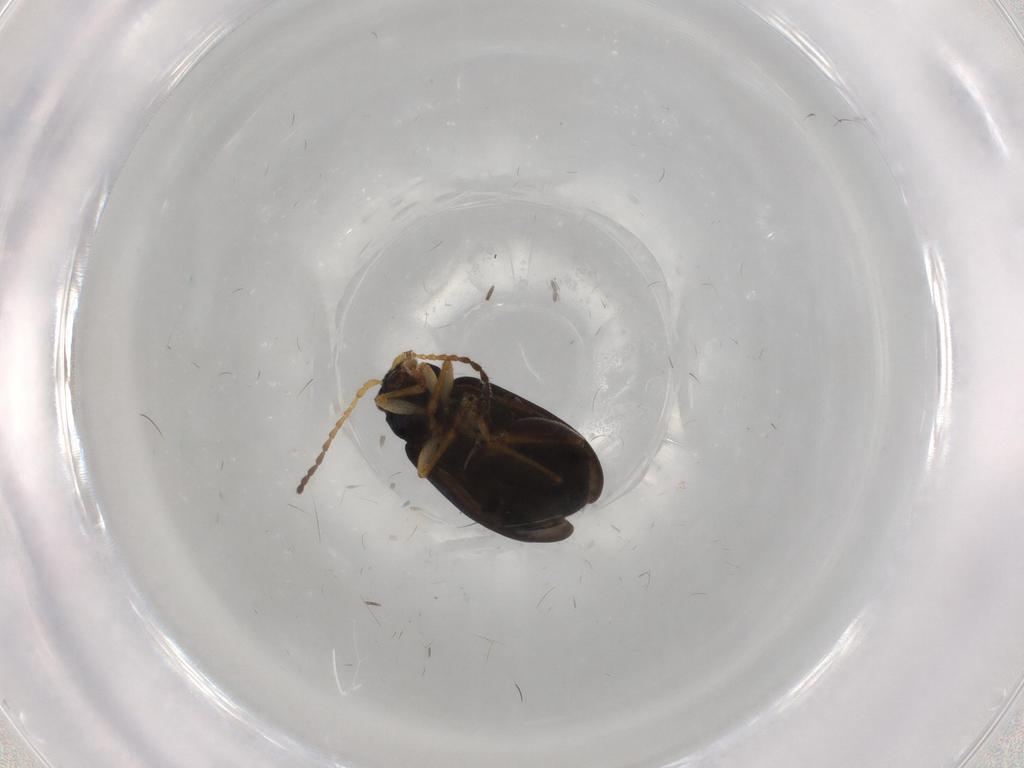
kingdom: Animalia
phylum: Arthropoda
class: Insecta
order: Coleoptera
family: Chrysomelidae
